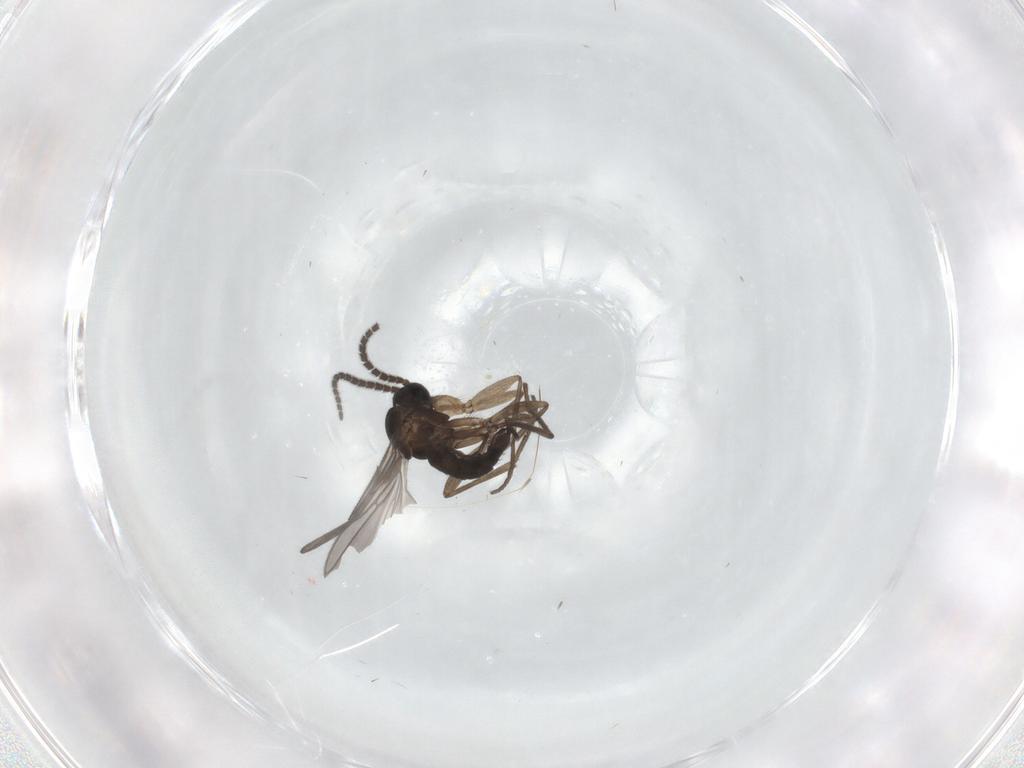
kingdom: Animalia
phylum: Arthropoda
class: Insecta
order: Diptera
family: Sciaridae
